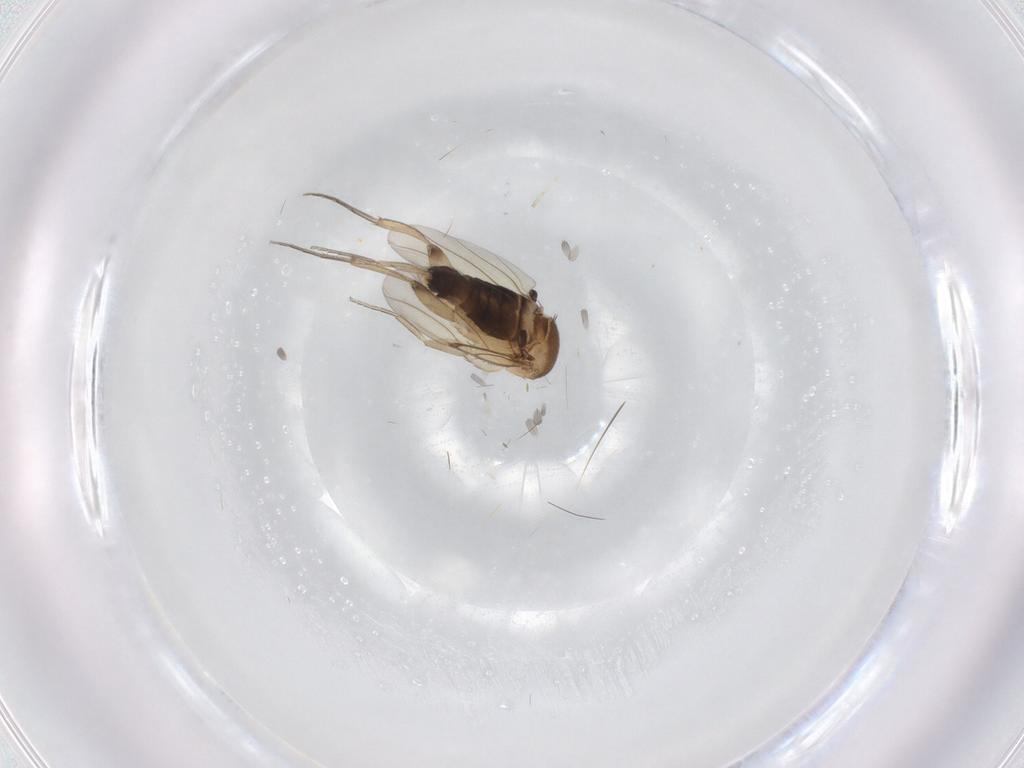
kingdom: Animalia
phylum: Arthropoda
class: Insecta
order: Diptera
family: Phoridae
